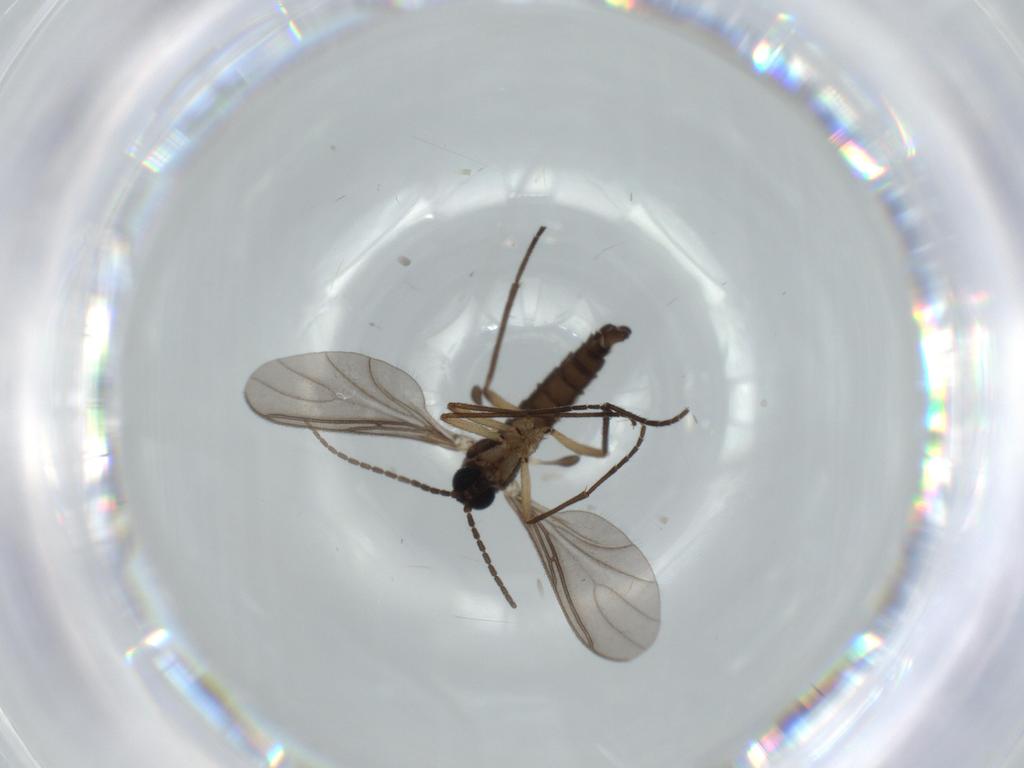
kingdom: Animalia
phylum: Arthropoda
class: Insecta
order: Diptera
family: Sciaridae
